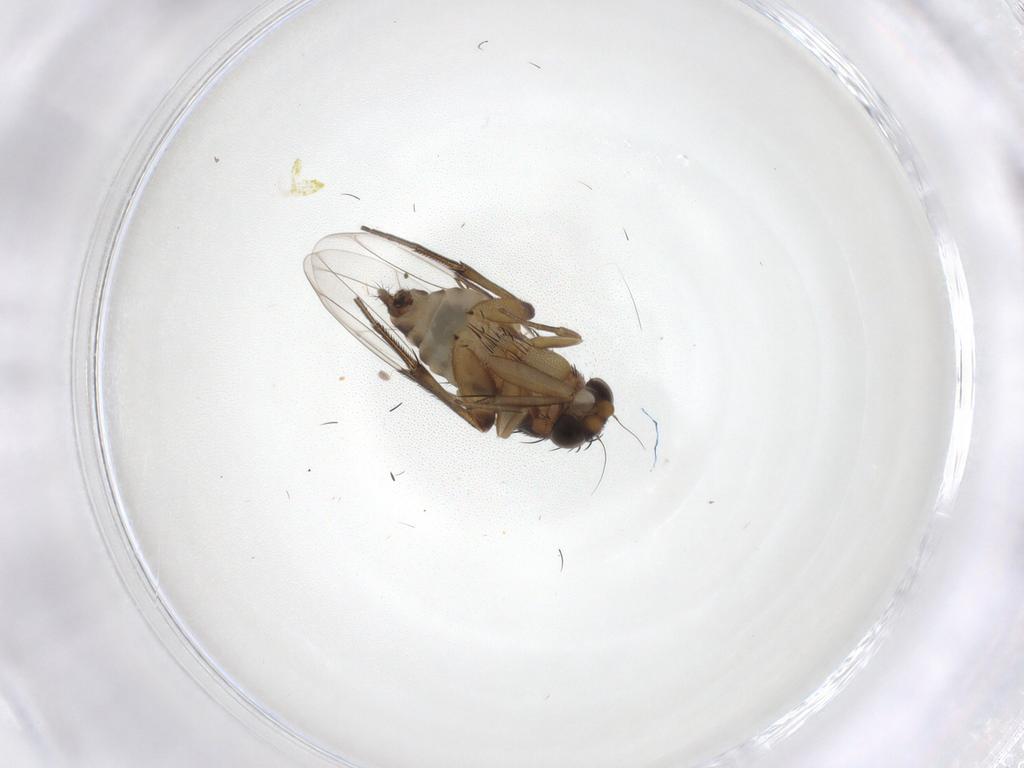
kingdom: Animalia
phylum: Arthropoda
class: Insecta
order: Diptera
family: Phoridae
